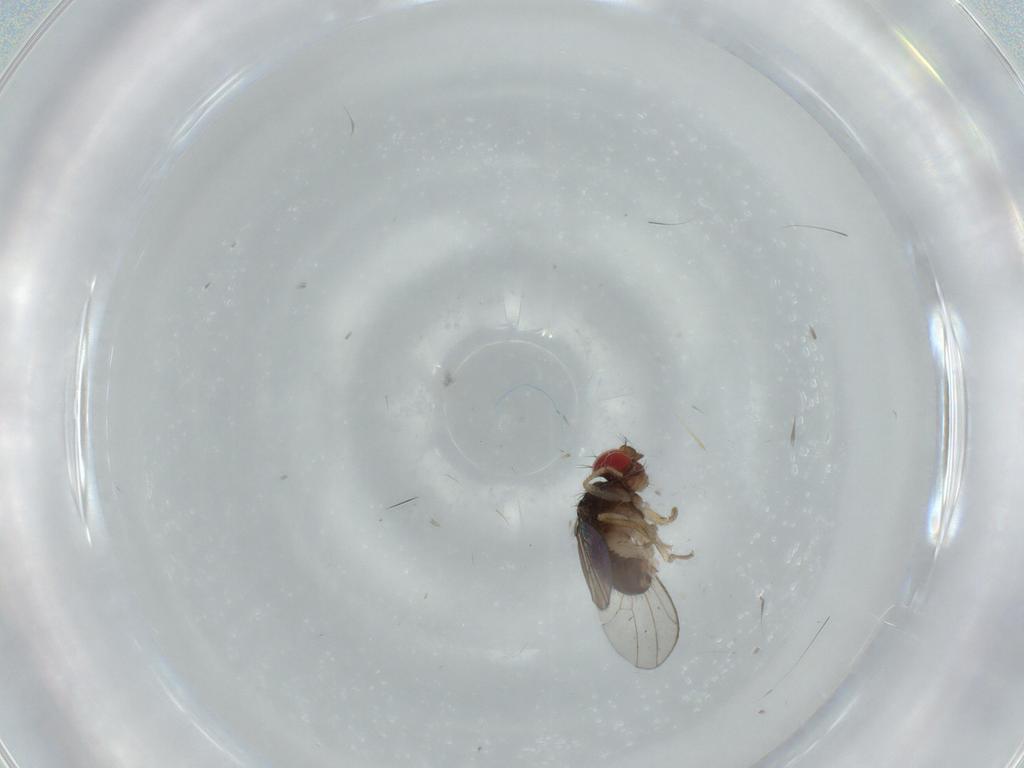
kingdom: Animalia
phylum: Arthropoda
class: Insecta
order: Diptera
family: Drosophilidae
